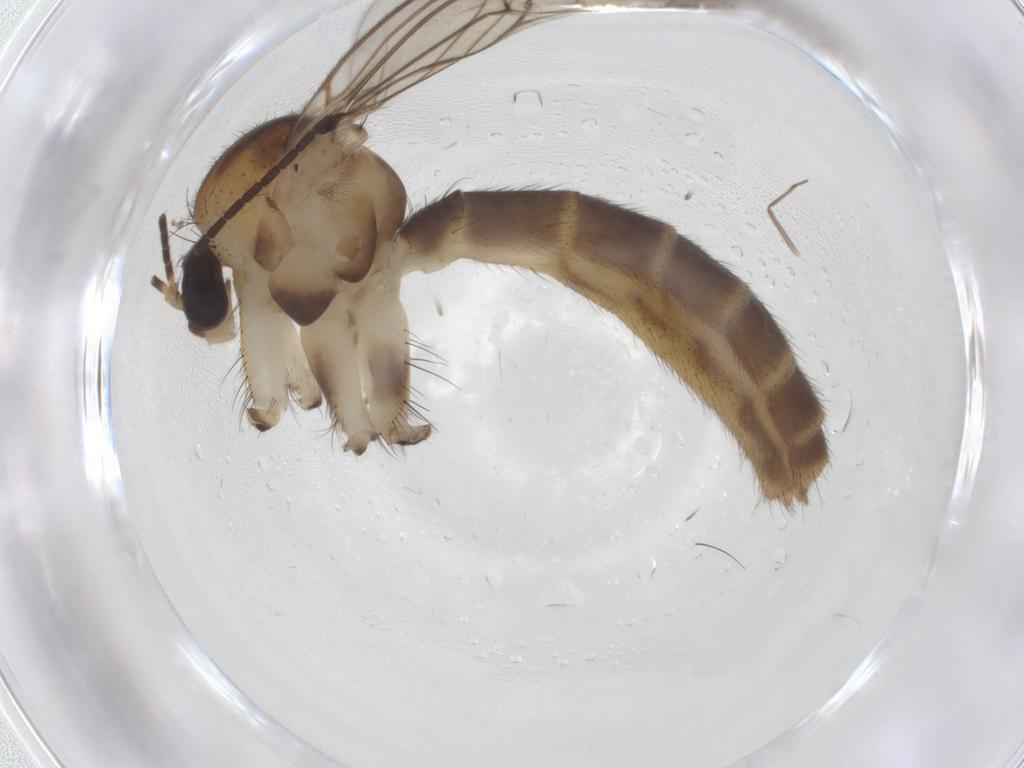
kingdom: Animalia
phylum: Arthropoda
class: Insecta
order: Diptera
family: Mycetophilidae
